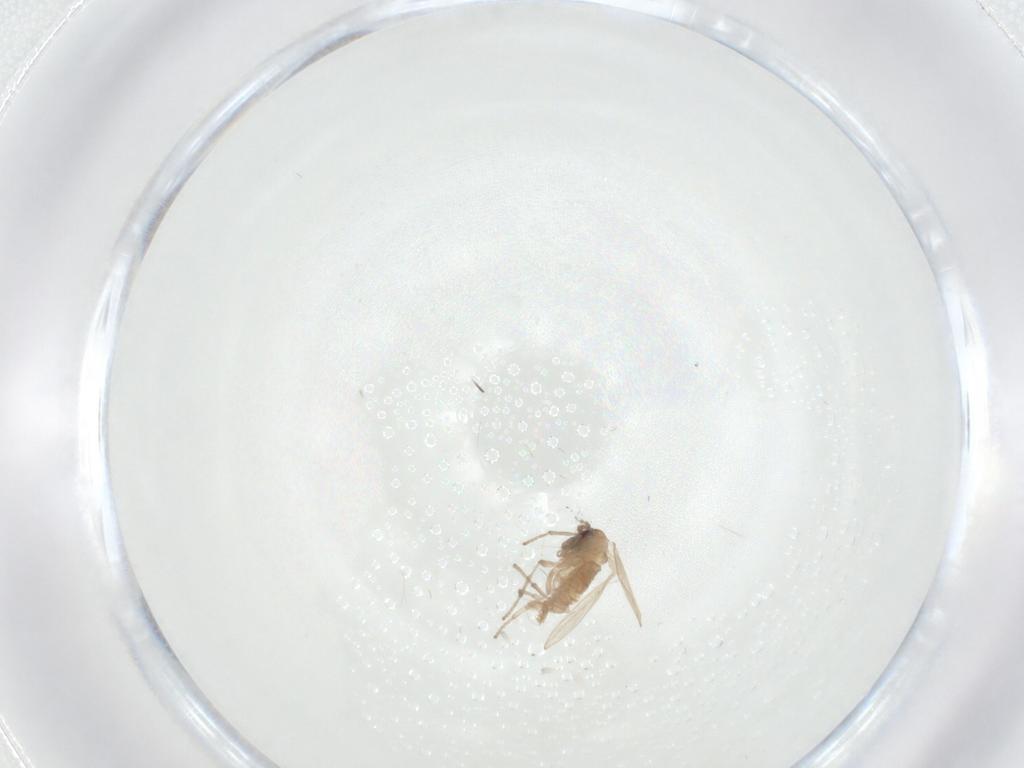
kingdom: Animalia
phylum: Arthropoda
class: Insecta
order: Diptera
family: Psychodidae
